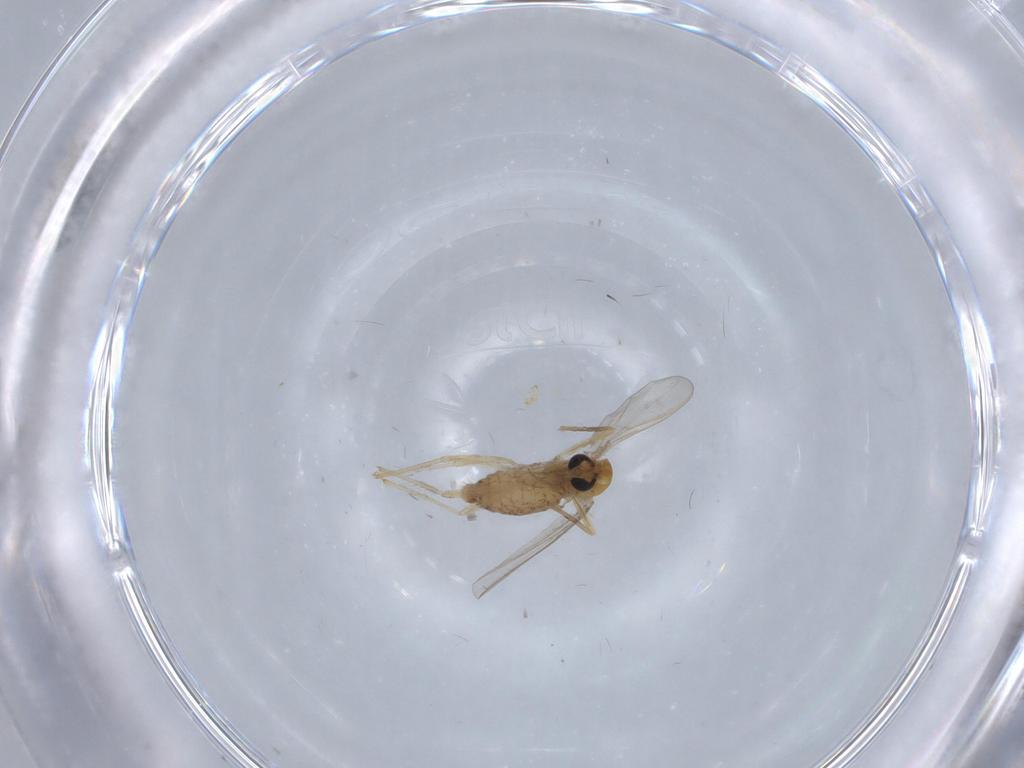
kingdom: Animalia
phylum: Arthropoda
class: Insecta
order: Diptera
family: Chironomidae
